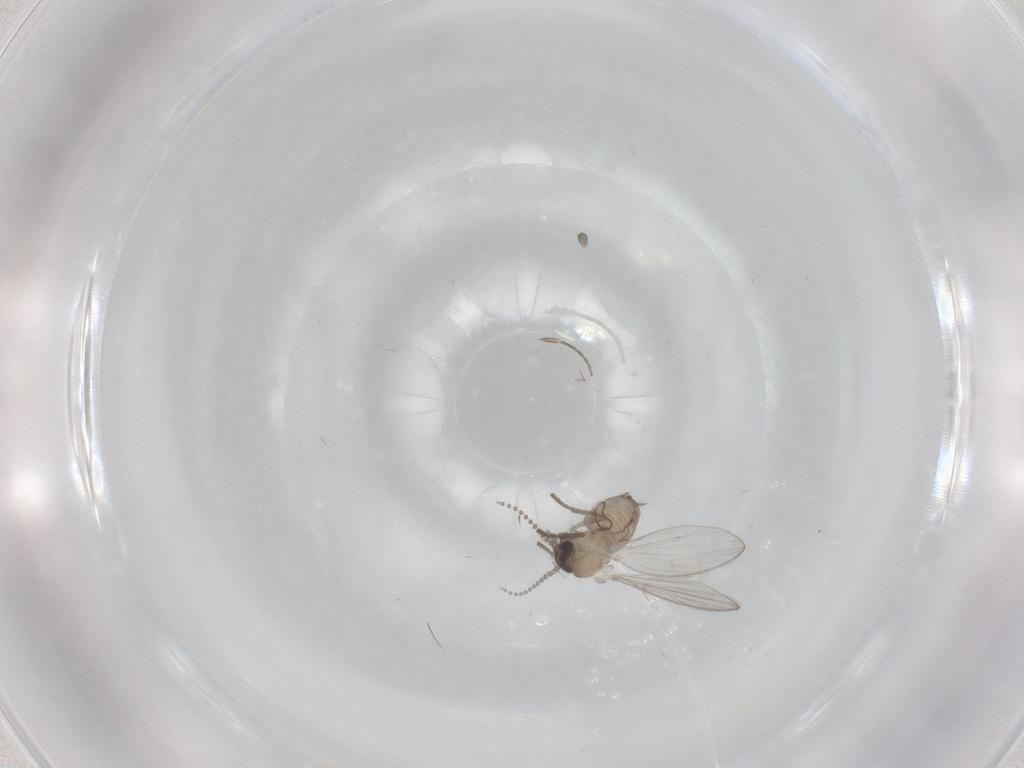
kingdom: Animalia
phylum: Arthropoda
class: Insecta
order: Diptera
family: Psychodidae
